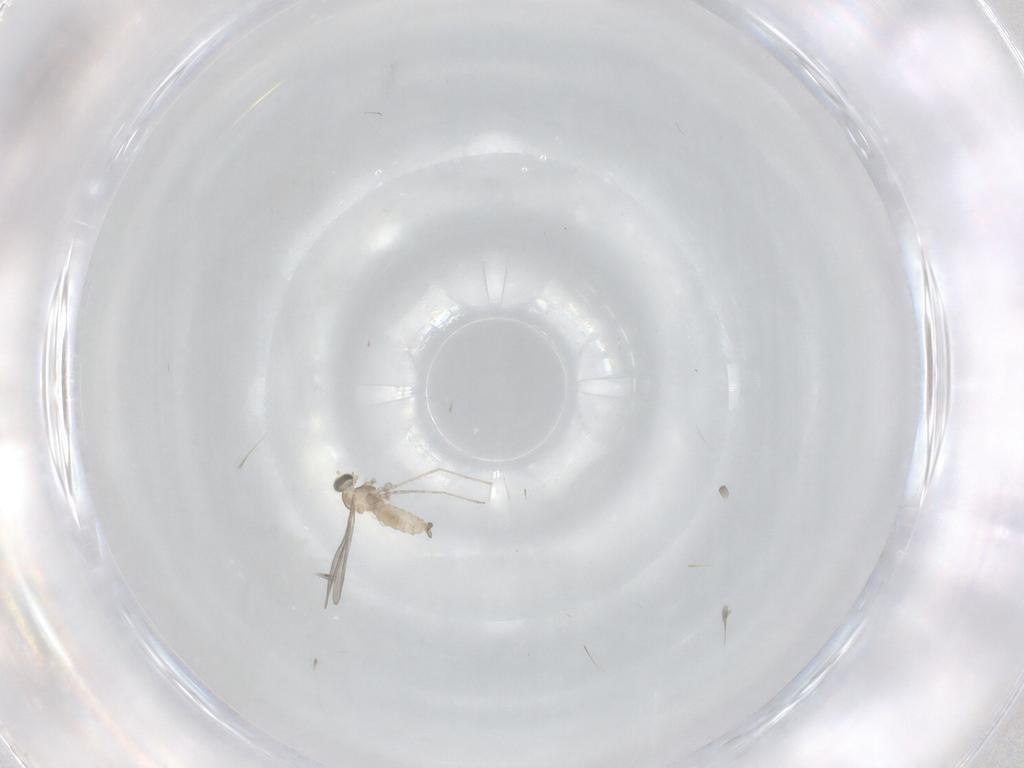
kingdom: Animalia
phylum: Arthropoda
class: Insecta
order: Diptera
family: Cecidomyiidae
